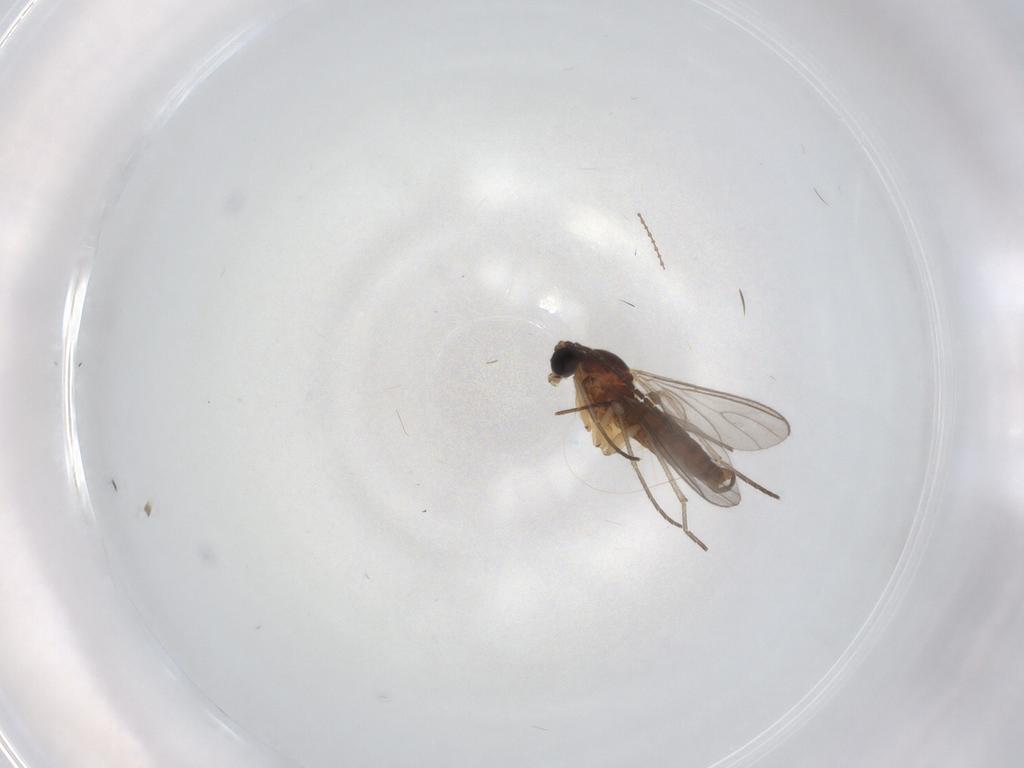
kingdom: Animalia
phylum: Arthropoda
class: Insecta
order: Diptera
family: Sciaridae
